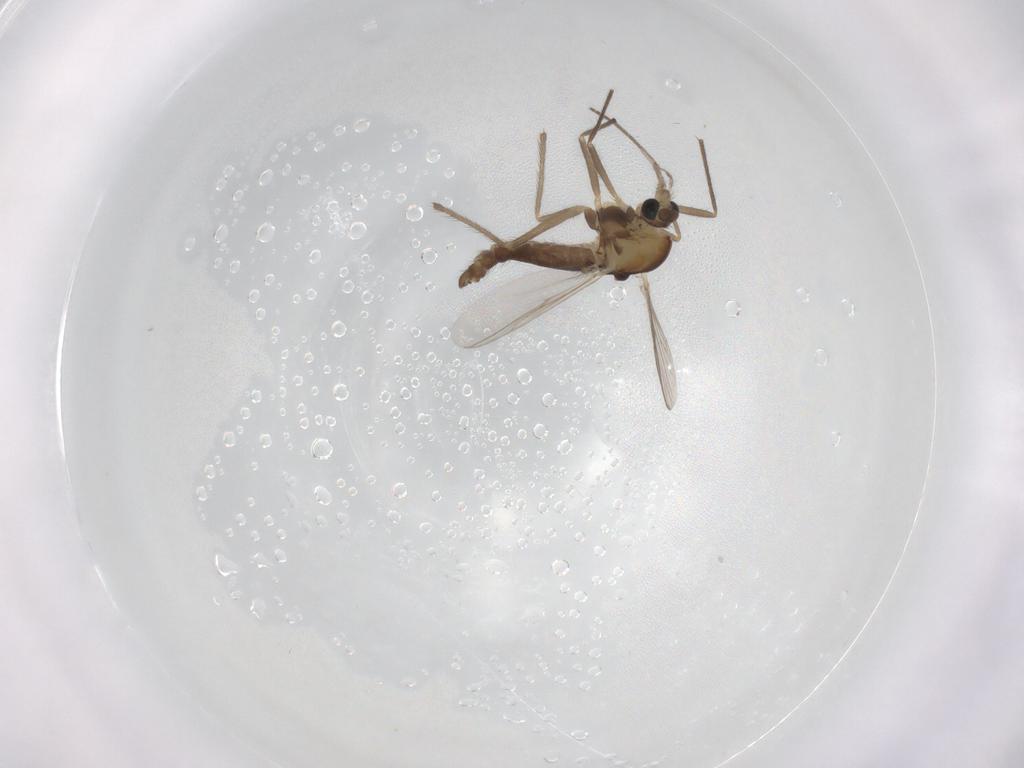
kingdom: Animalia
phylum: Arthropoda
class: Insecta
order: Diptera
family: Chironomidae
